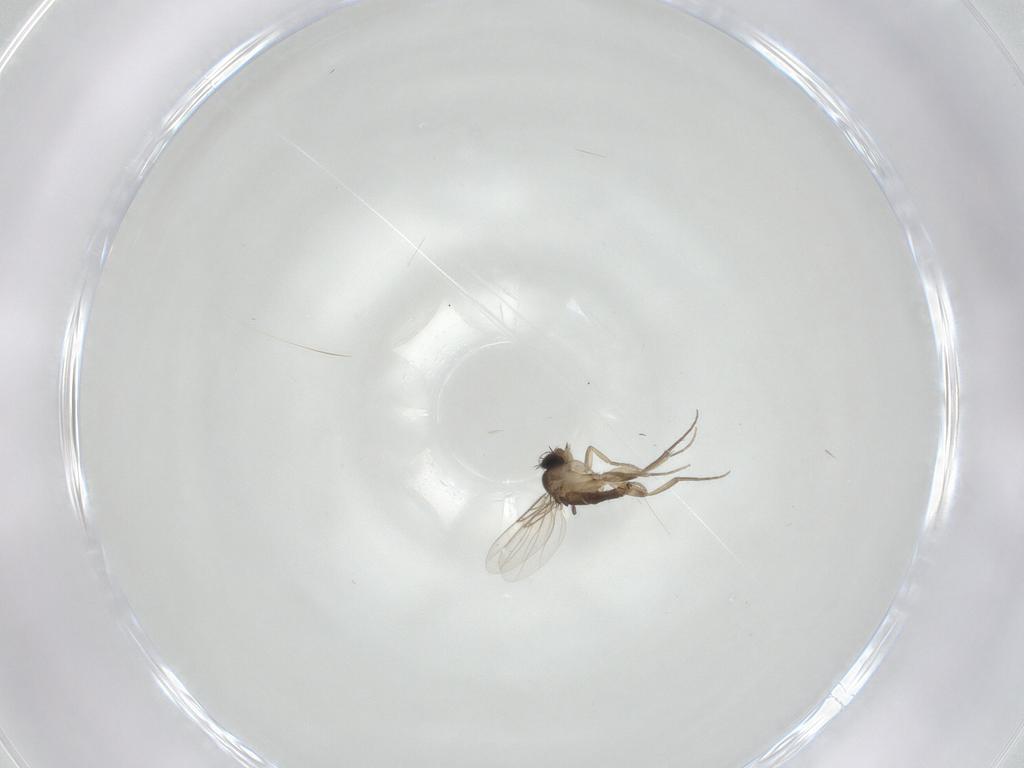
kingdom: Animalia
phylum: Arthropoda
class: Insecta
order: Diptera
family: Phoridae
